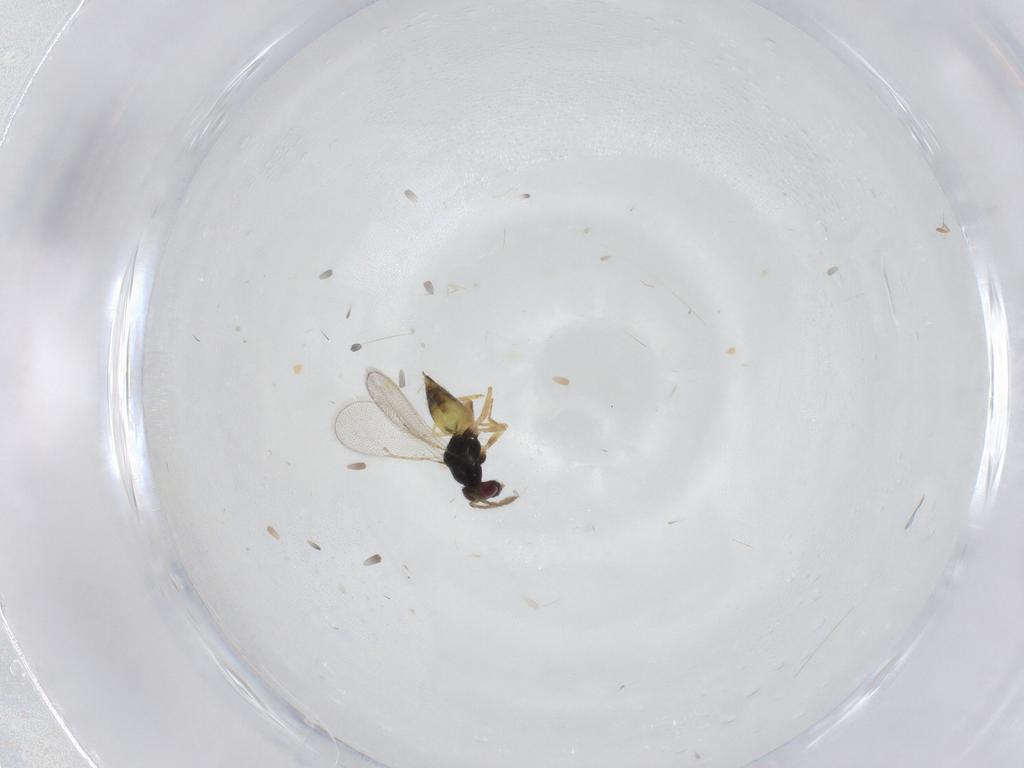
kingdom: Animalia
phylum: Arthropoda
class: Insecta
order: Hymenoptera
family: Eulophidae
